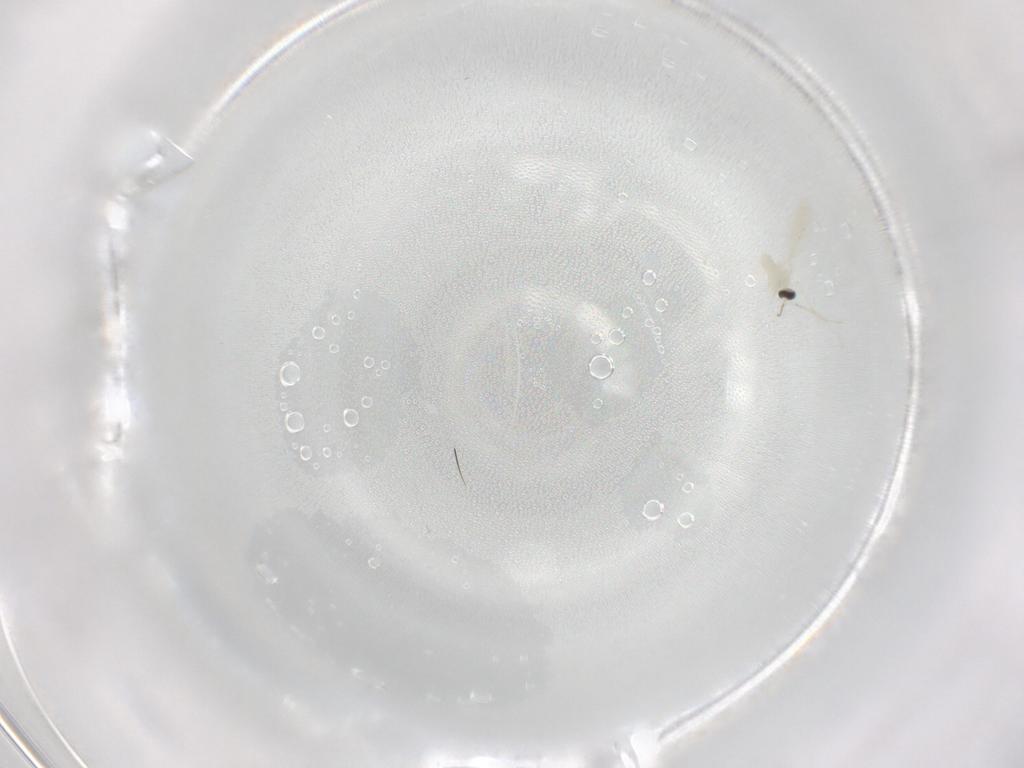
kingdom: Animalia
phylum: Arthropoda
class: Insecta
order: Diptera
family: Cecidomyiidae
